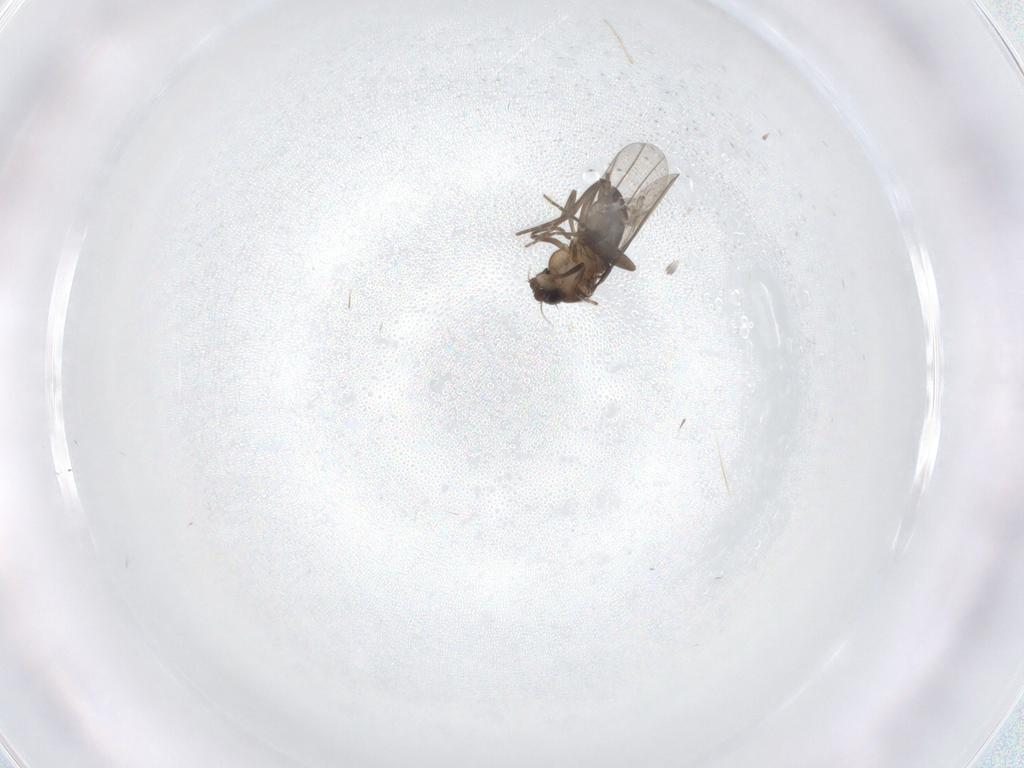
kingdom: Animalia
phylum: Arthropoda
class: Insecta
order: Diptera
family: Chironomidae
